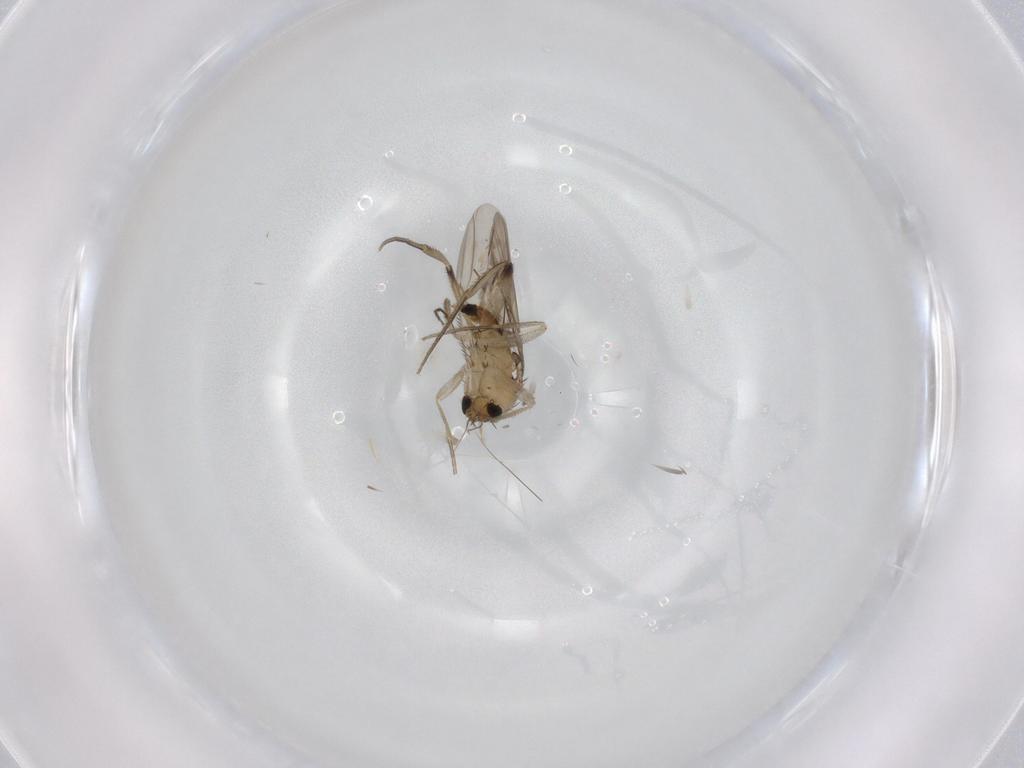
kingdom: Animalia
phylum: Arthropoda
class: Insecta
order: Diptera
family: Phoridae
